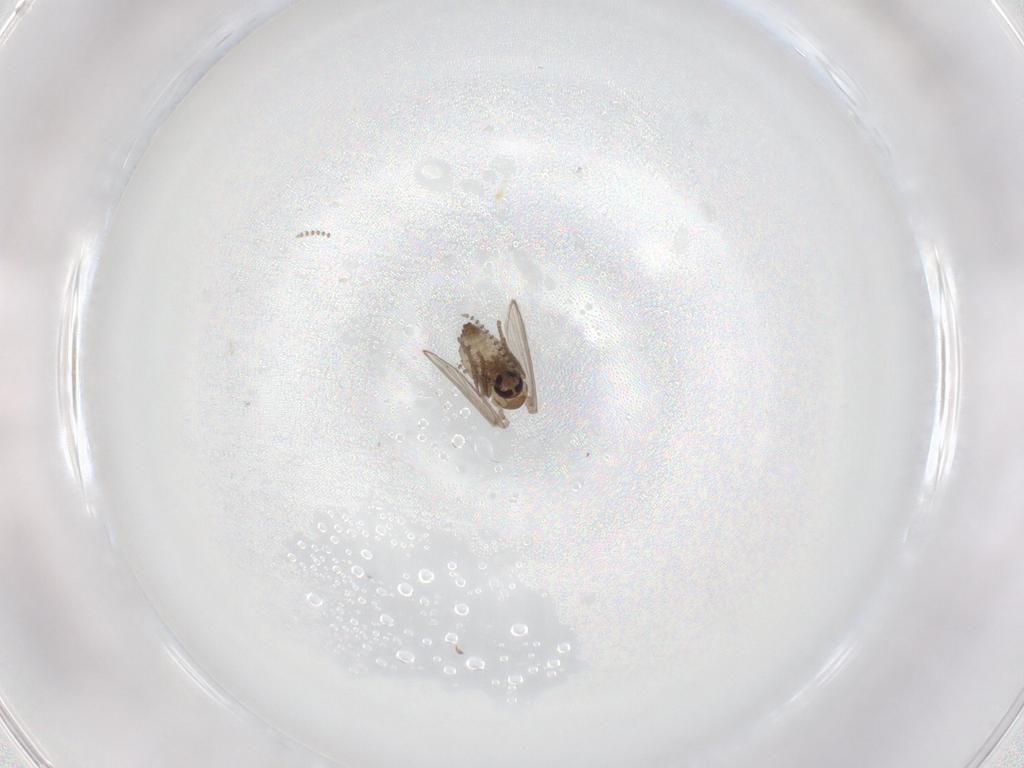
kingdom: Animalia
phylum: Arthropoda
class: Insecta
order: Diptera
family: Psychodidae
